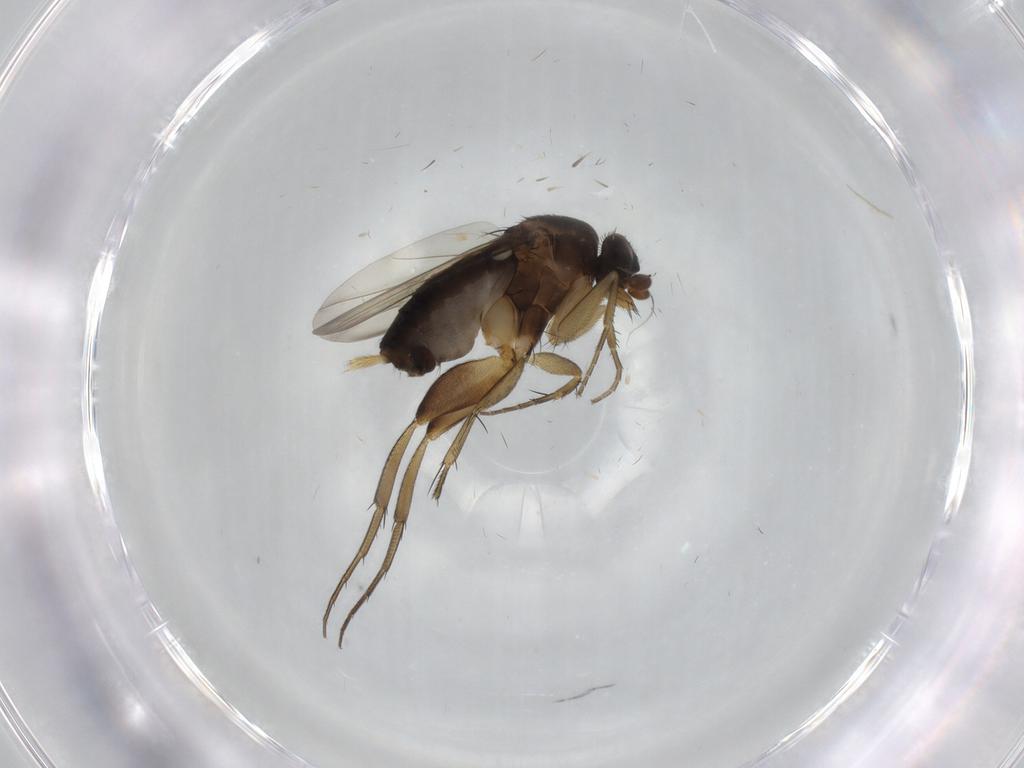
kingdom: Animalia
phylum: Arthropoda
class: Insecta
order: Diptera
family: Phoridae
